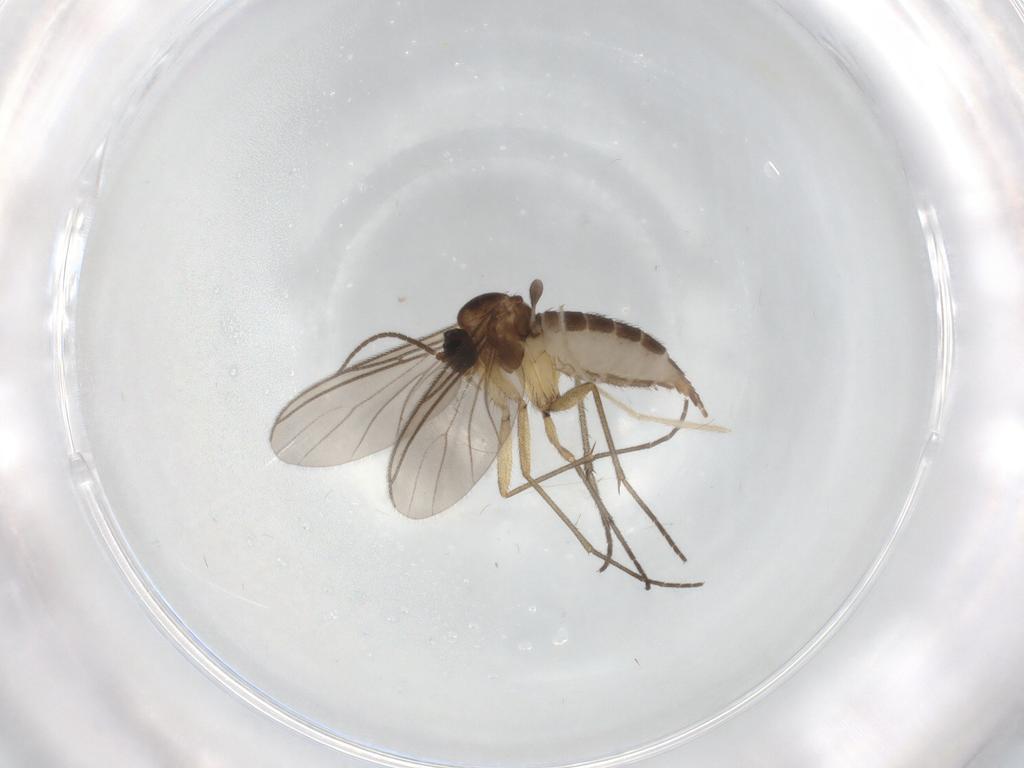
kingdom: Animalia
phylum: Arthropoda
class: Insecta
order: Diptera
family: Sciaridae
